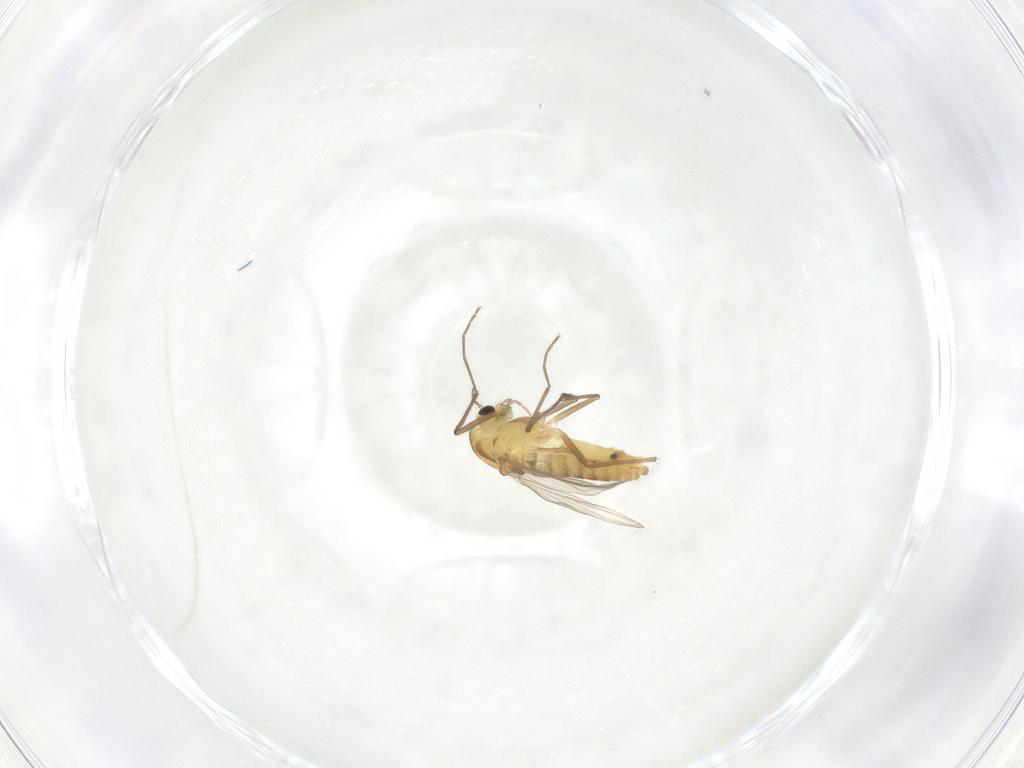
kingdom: Animalia
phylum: Arthropoda
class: Insecta
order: Diptera
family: Chironomidae
